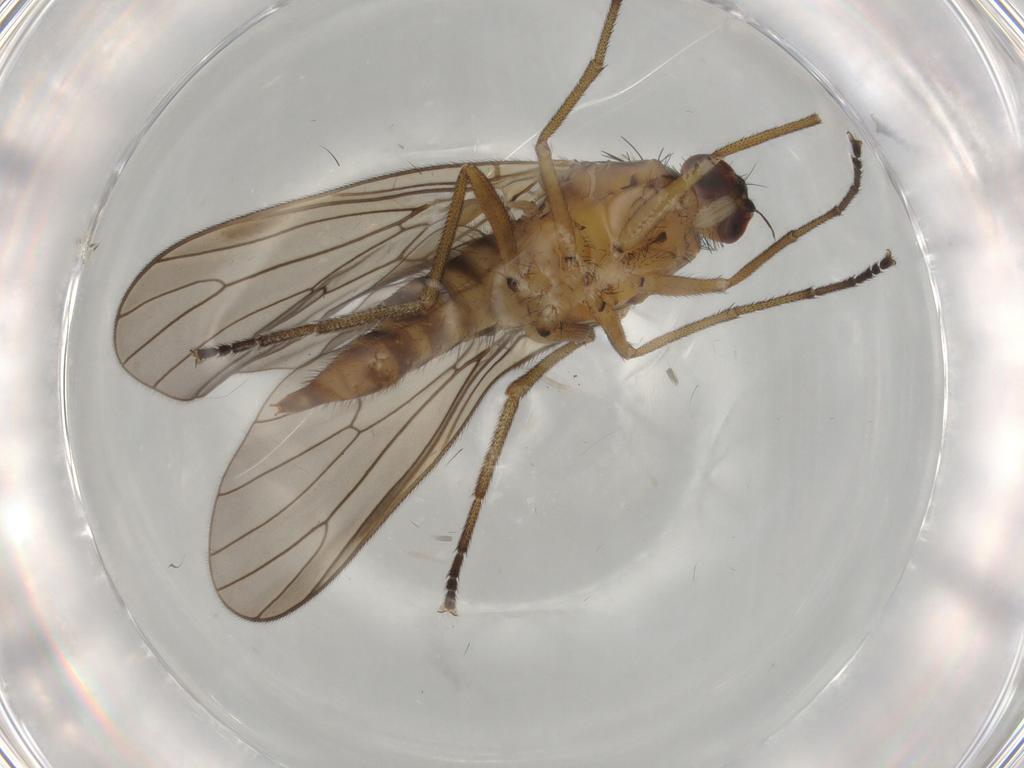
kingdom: Animalia
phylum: Arthropoda
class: Insecta
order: Diptera
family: Brachystomatidae
